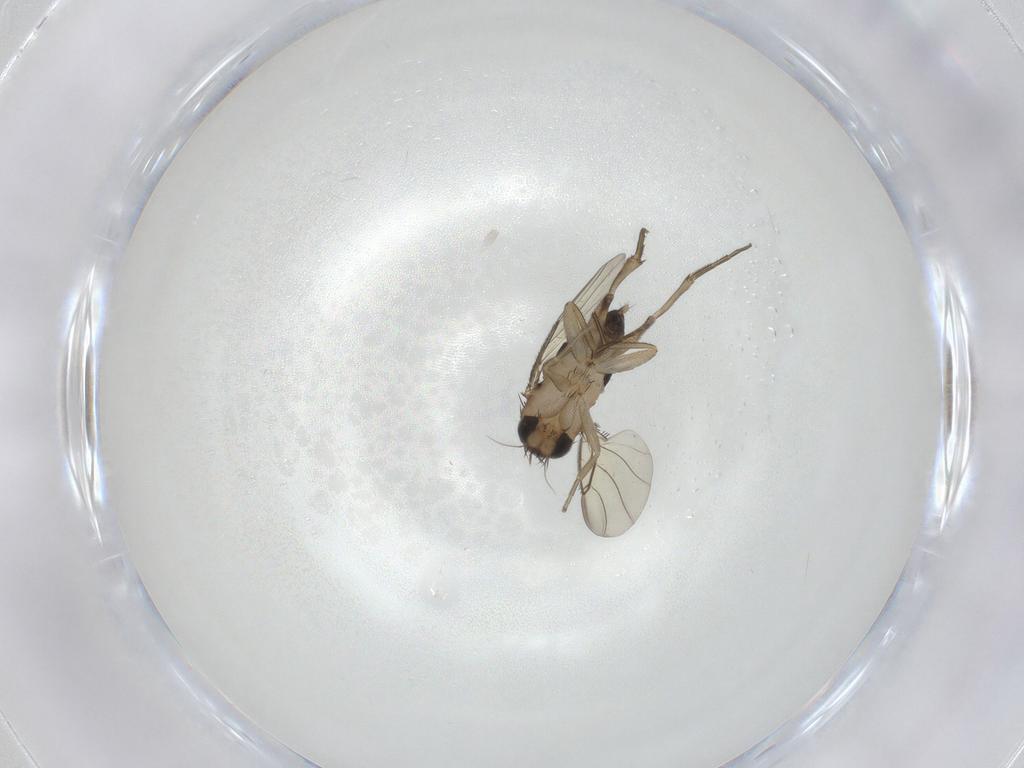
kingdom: Animalia
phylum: Arthropoda
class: Insecta
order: Diptera
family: Phoridae
